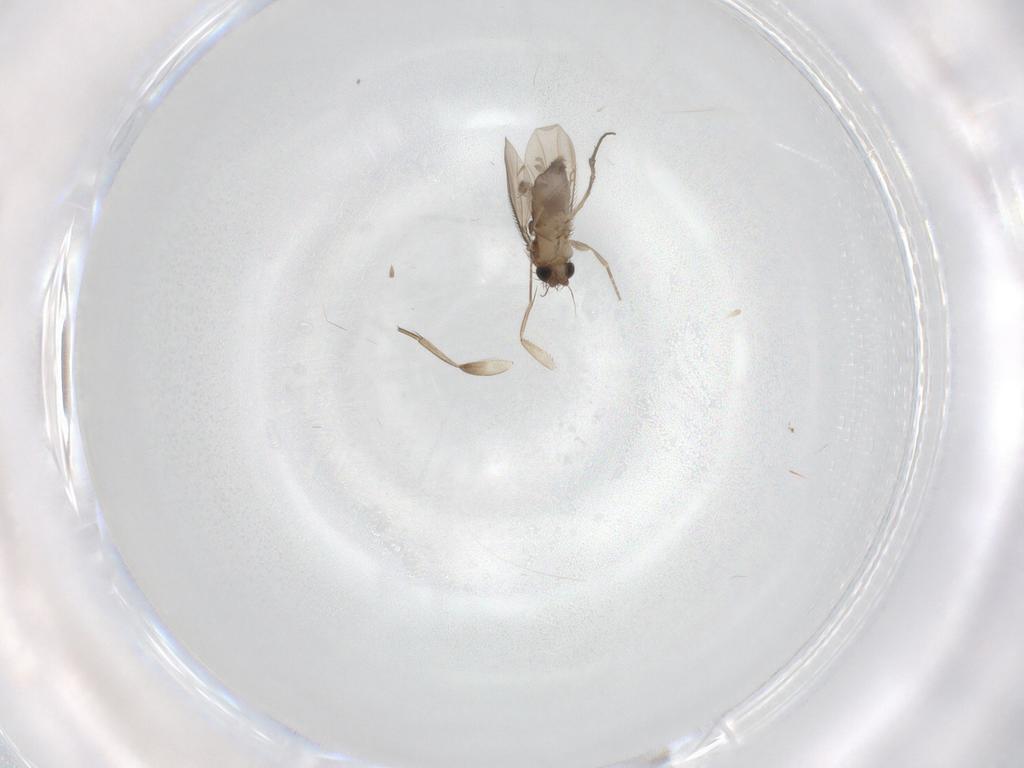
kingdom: Animalia
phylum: Arthropoda
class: Insecta
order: Diptera
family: Phoridae
